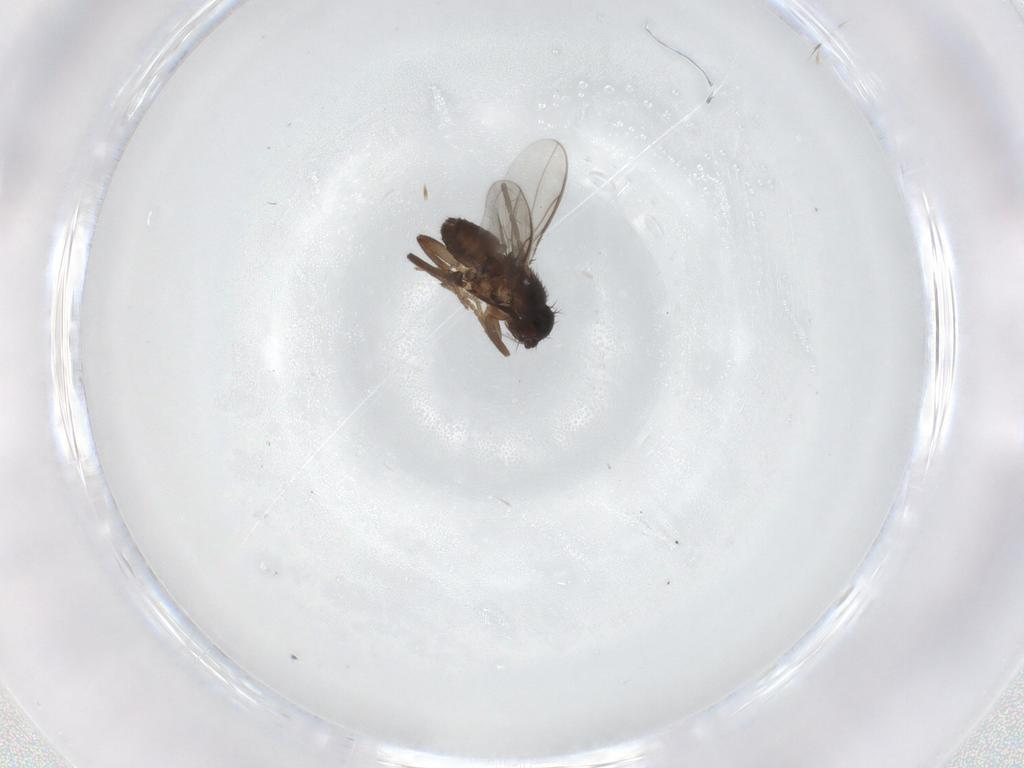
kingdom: Animalia
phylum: Arthropoda
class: Insecta
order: Diptera
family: Sphaeroceridae
